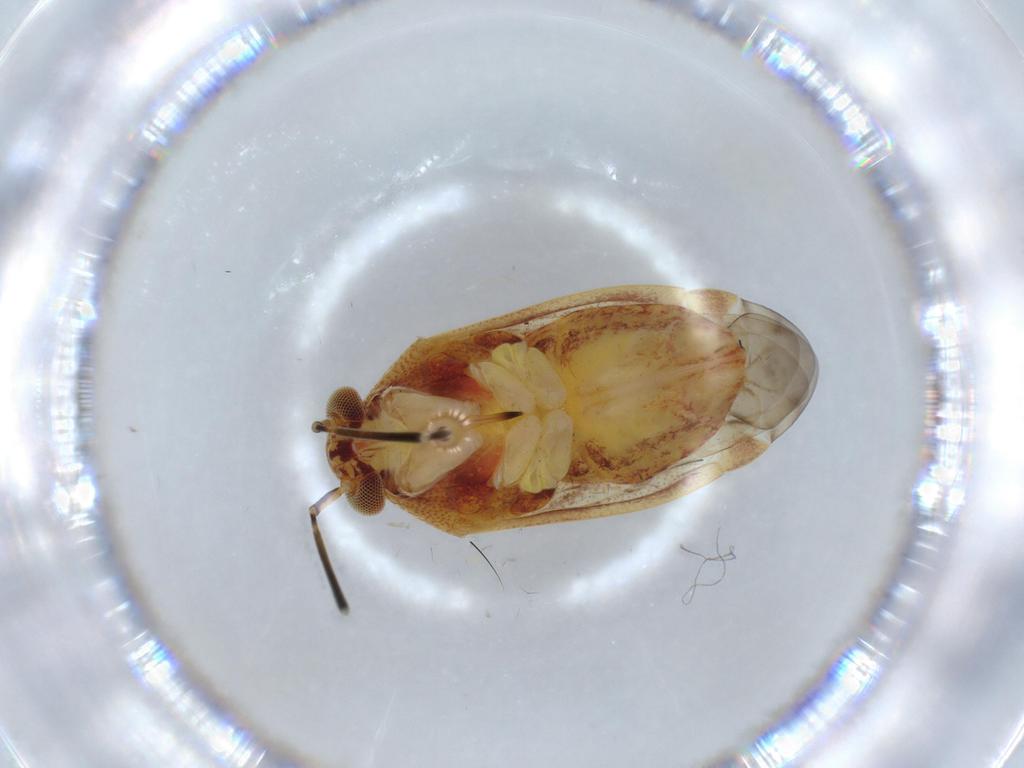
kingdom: Animalia
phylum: Arthropoda
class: Insecta
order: Hemiptera
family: Miridae
